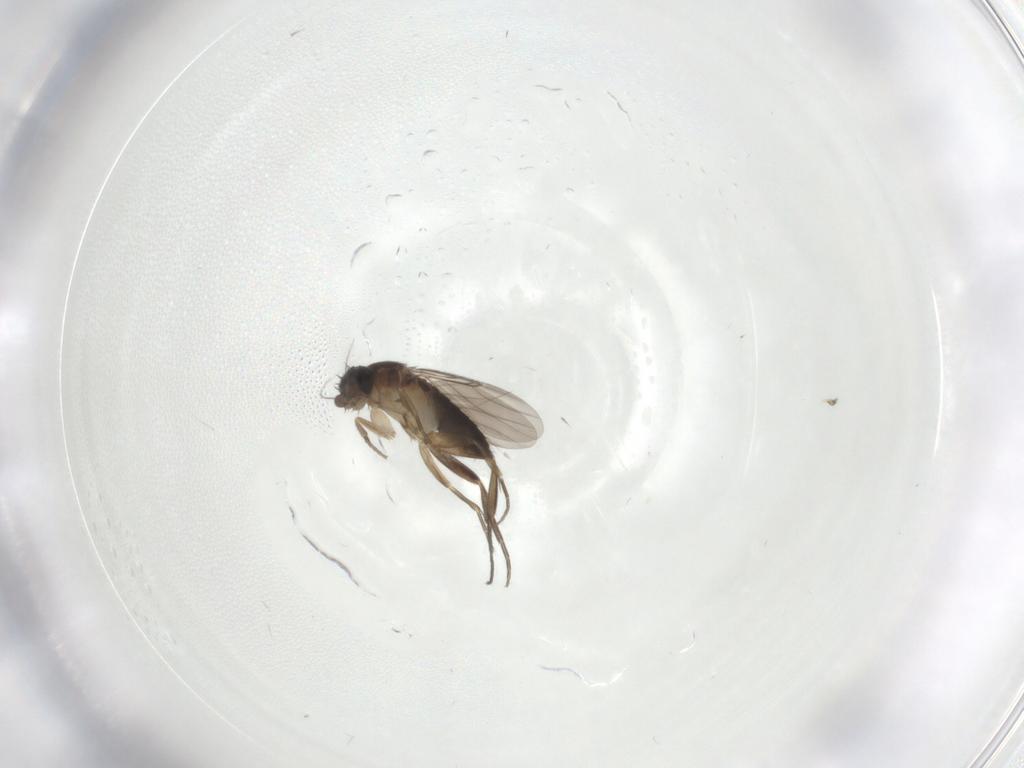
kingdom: Animalia
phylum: Arthropoda
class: Insecta
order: Diptera
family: Phoridae
